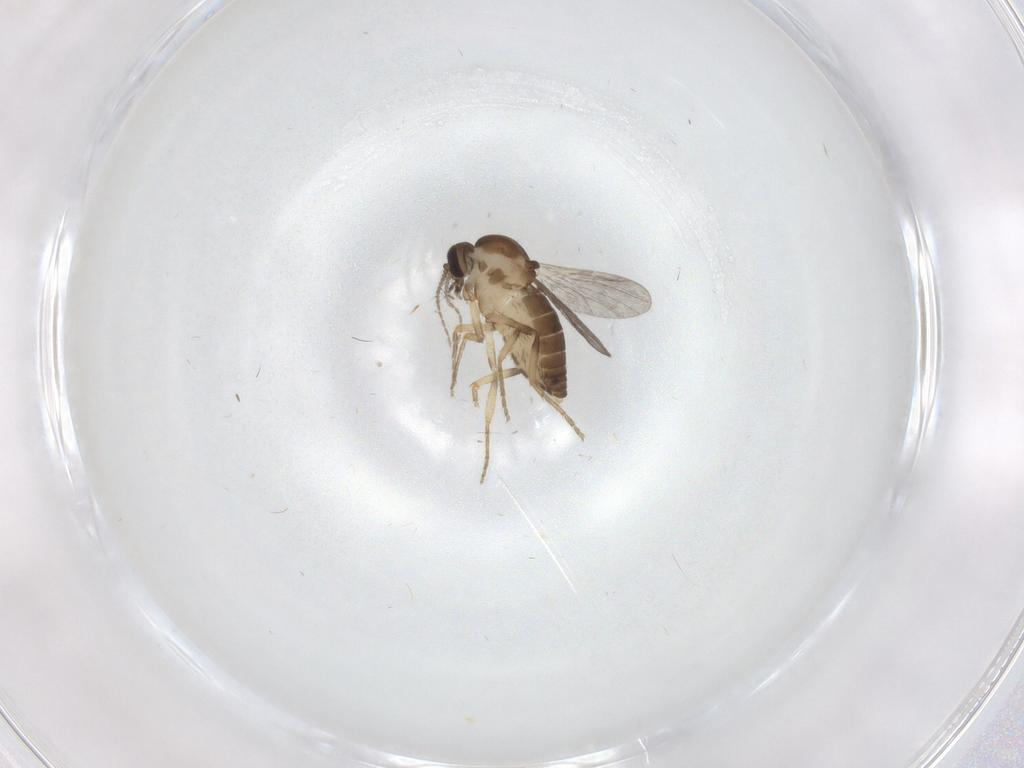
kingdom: Animalia
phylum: Arthropoda
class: Insecta
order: Diptera
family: Ceratopogonidae
